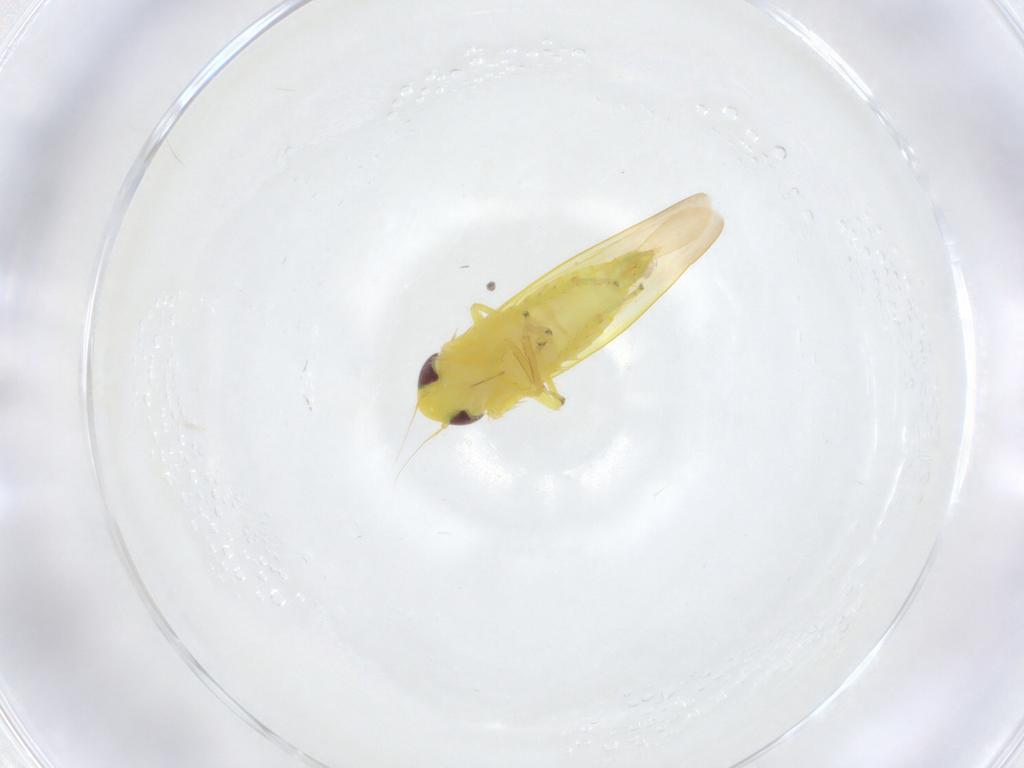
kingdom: Animalia
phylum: Arthropoda
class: Insecta
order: Hemiptera
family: Cicadellidae
